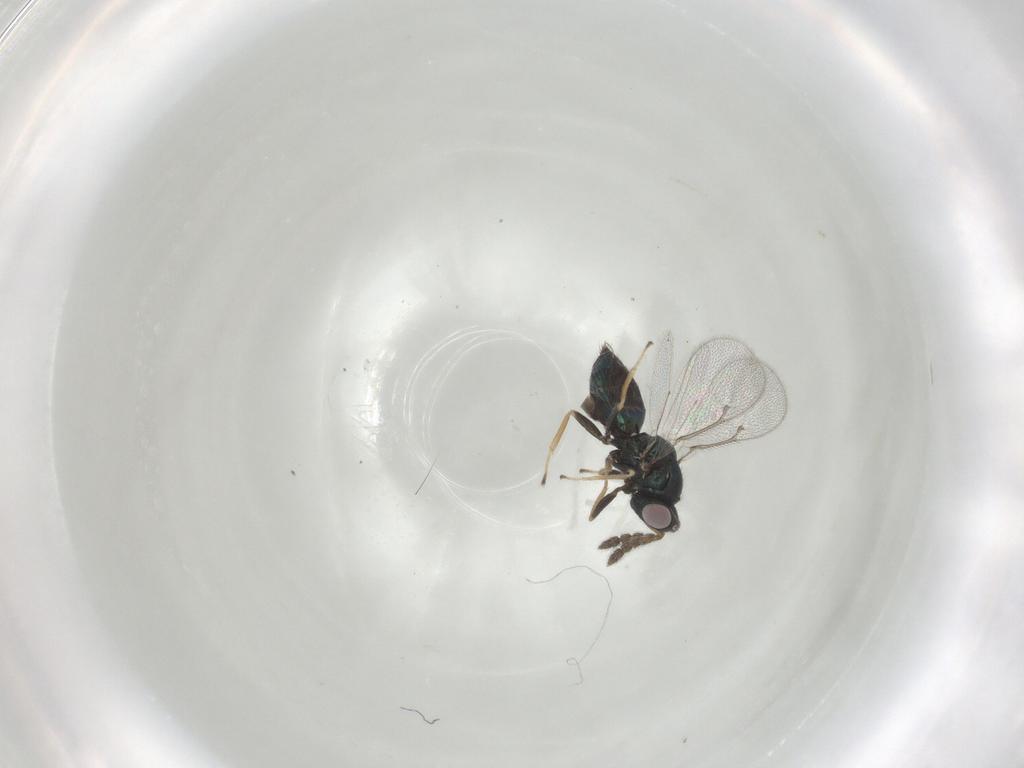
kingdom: Animalia
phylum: Arthropoda
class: Insecta
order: Hymenoptera
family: Eulophidae
